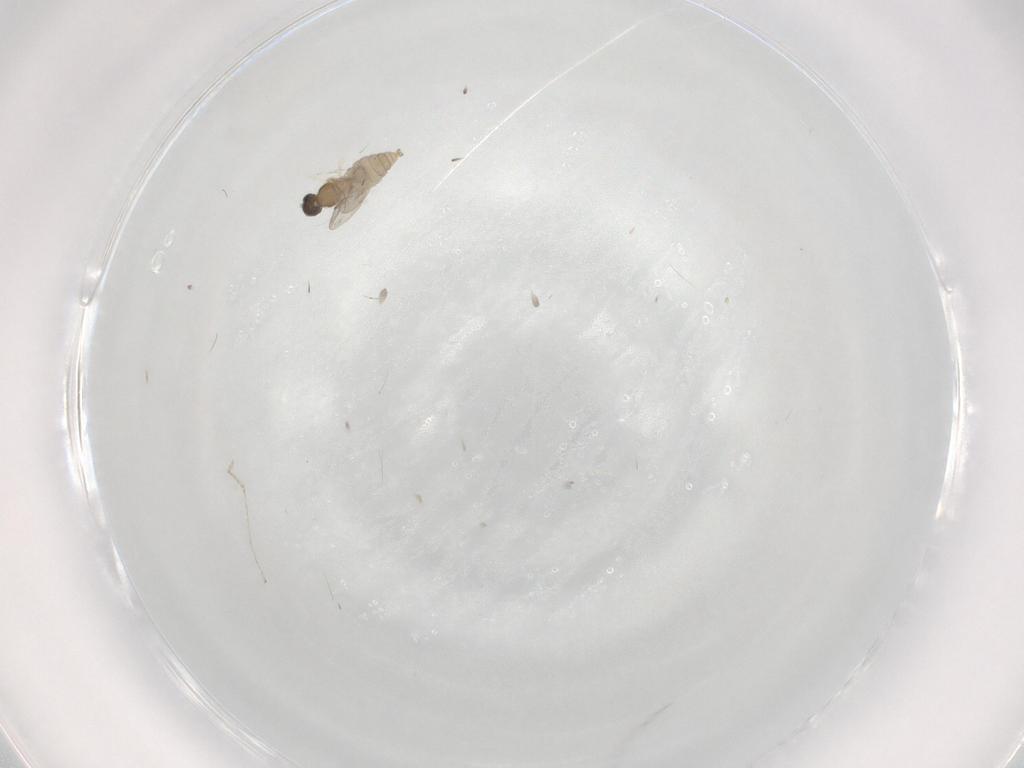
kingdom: Animalia
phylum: Arthropoda
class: Insecta
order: Diptera
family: Cecidomyiidae
